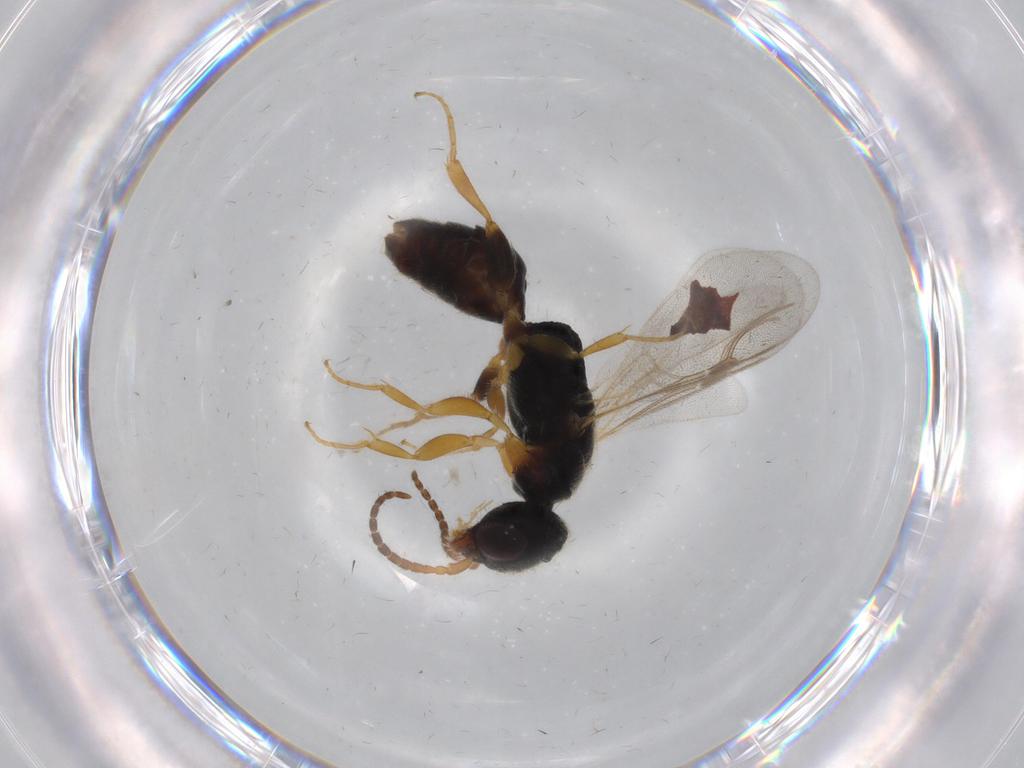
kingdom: Animalia
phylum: Arthropoda
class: Insecta
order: Hymenoptera
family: Bethylidae
